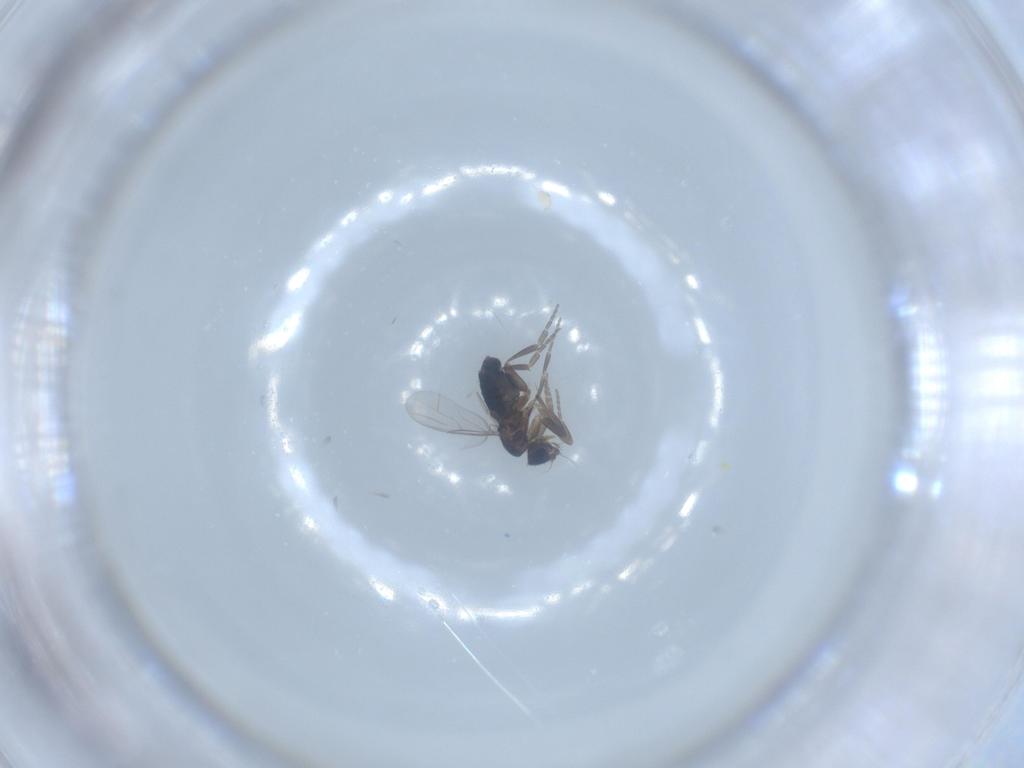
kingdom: Animalia
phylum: Arthropoda
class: Insecta
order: Diptera
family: Phoridae
